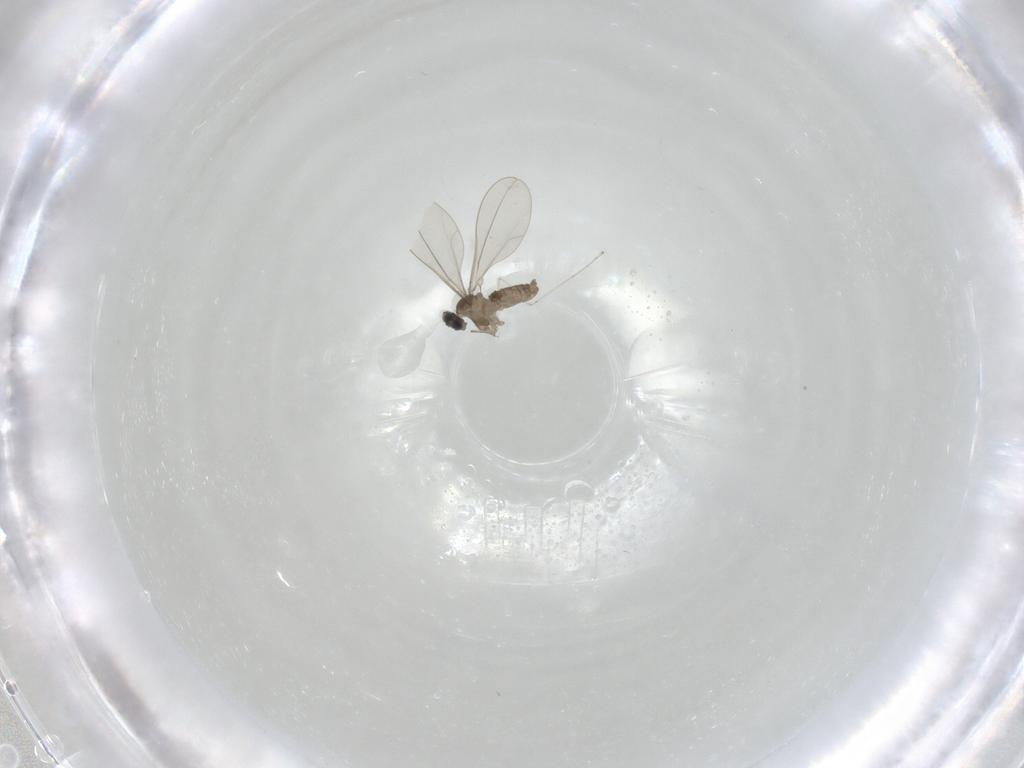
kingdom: Animalia
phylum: Arthropoda
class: Insecta
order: Diptera
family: Cecidomyiidae
